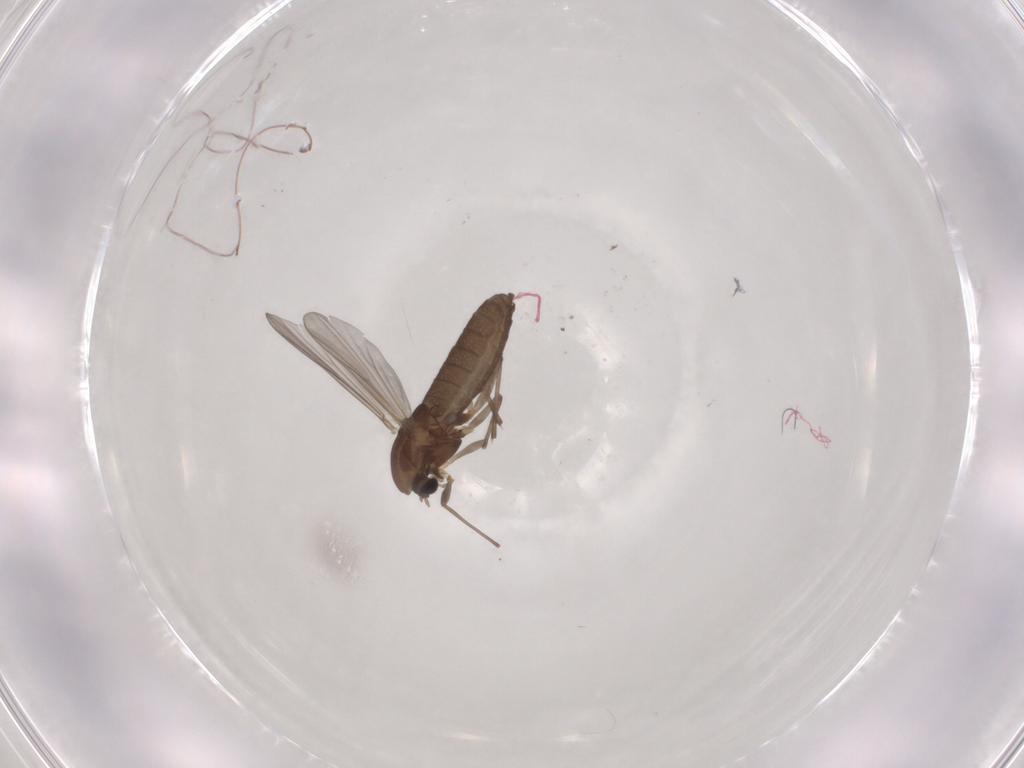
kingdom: Animalia
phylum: Arthropoda
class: Insecta
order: Diptera
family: Chironomidae
